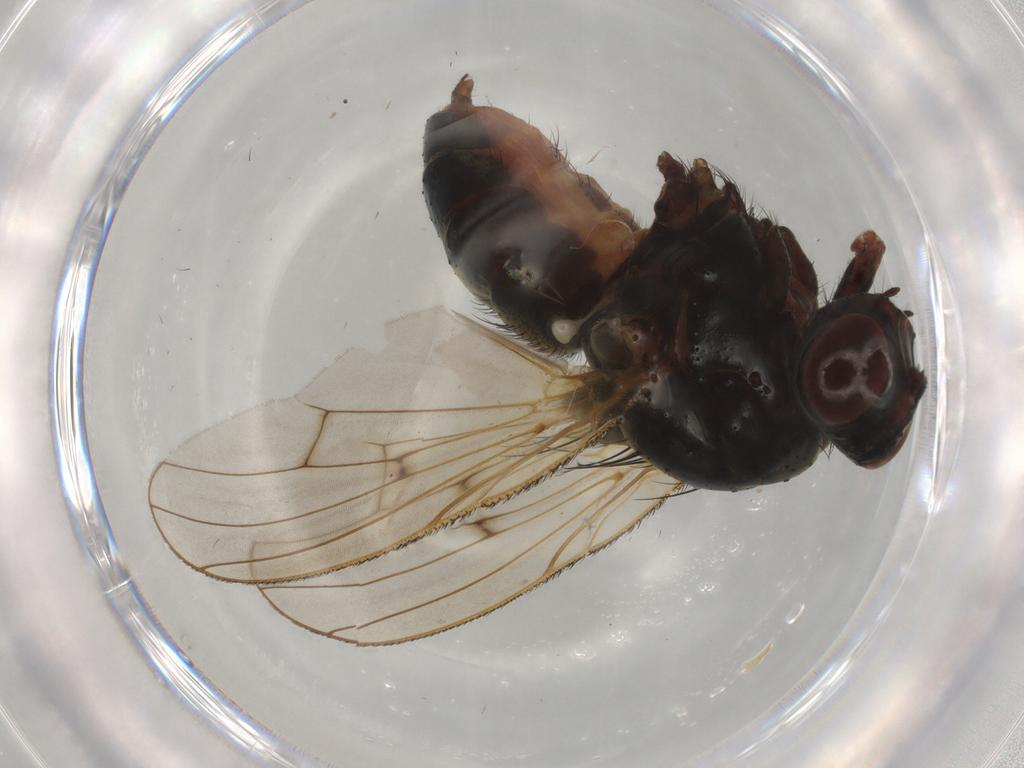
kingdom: Animalia
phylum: Arthropoda
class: Insecta
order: Diptera
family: Sciaridae
